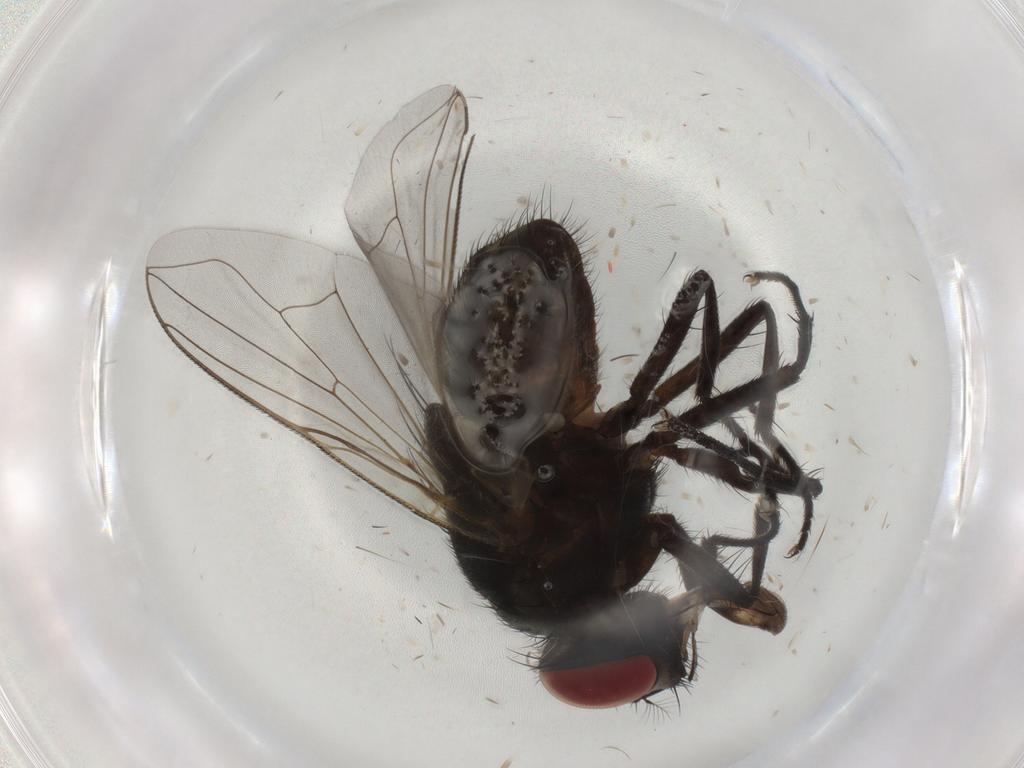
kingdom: Animalia
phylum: Arthropoda
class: Insecta
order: Diptera
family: Muscidae
